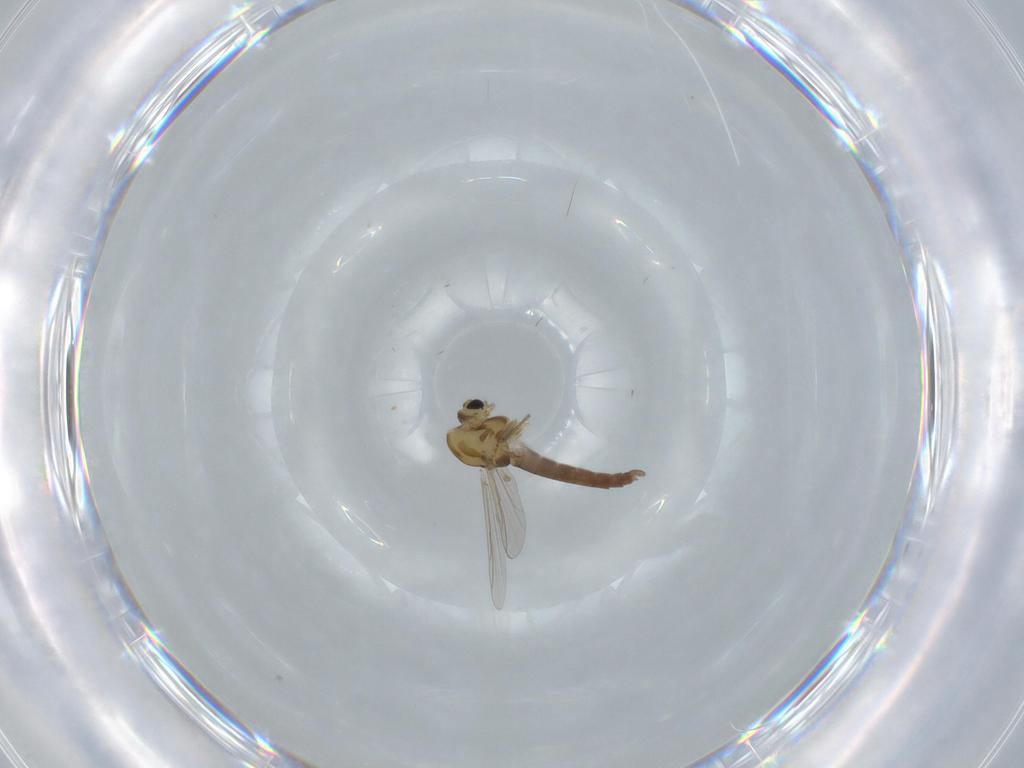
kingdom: Animalia
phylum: Arthropoda
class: Insecta
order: Diptera
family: Chironomidae
